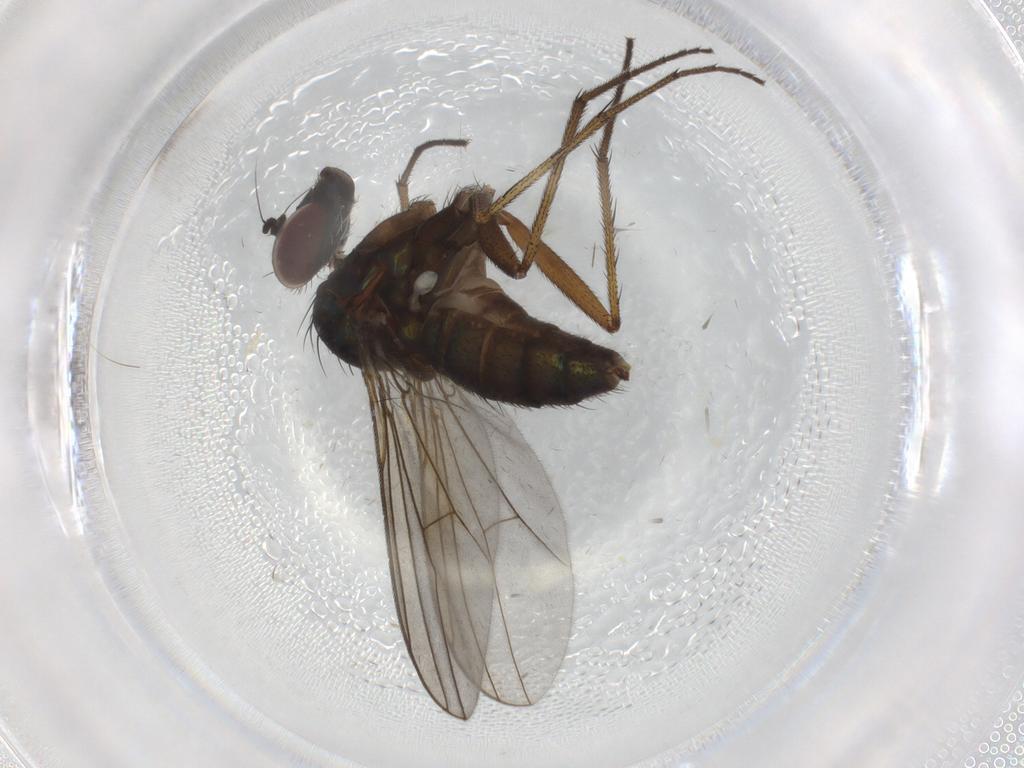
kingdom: Animalia
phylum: Arthropoda
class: Insecta
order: Diptera
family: Dolichopodidae
